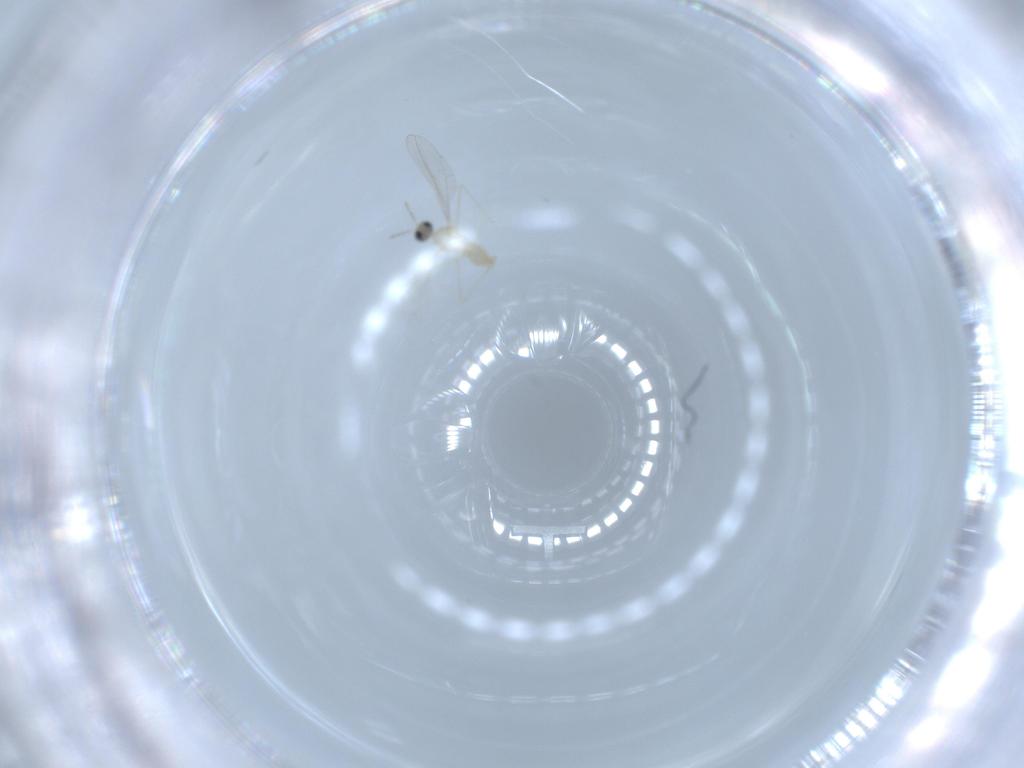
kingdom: Animalia
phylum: Arthropoda
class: Insecta
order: Diptera
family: Cecidomyiidae
